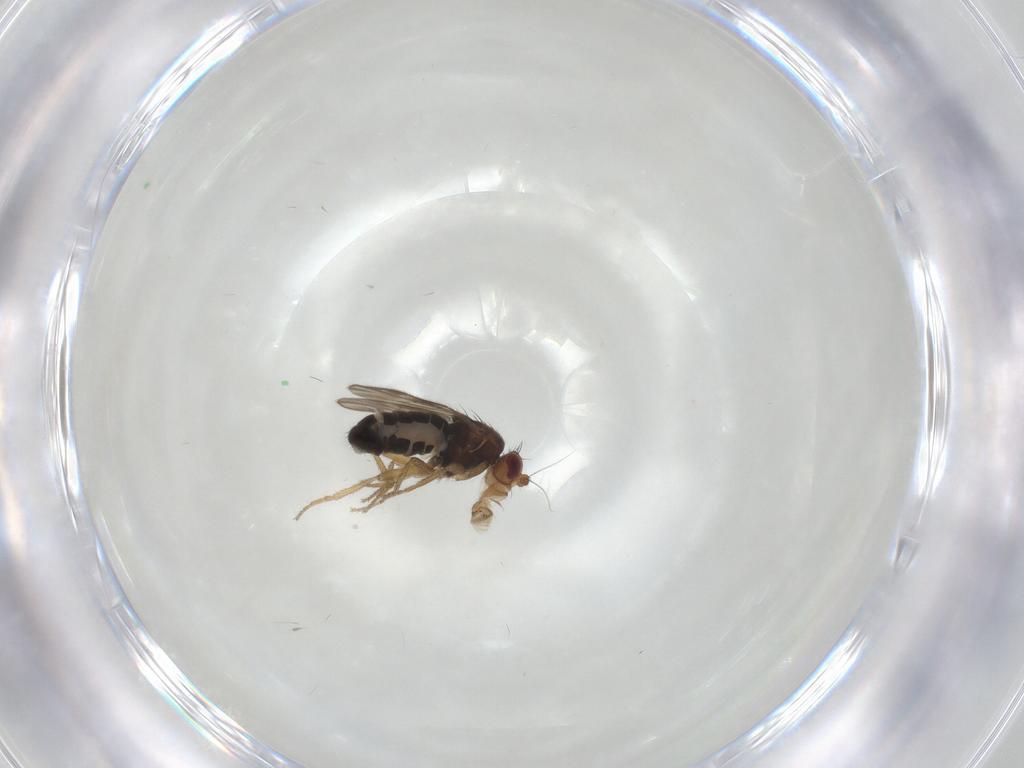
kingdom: Animalia
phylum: Arthropoda
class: Insecta
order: Diptera
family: Sphaeroceridae
